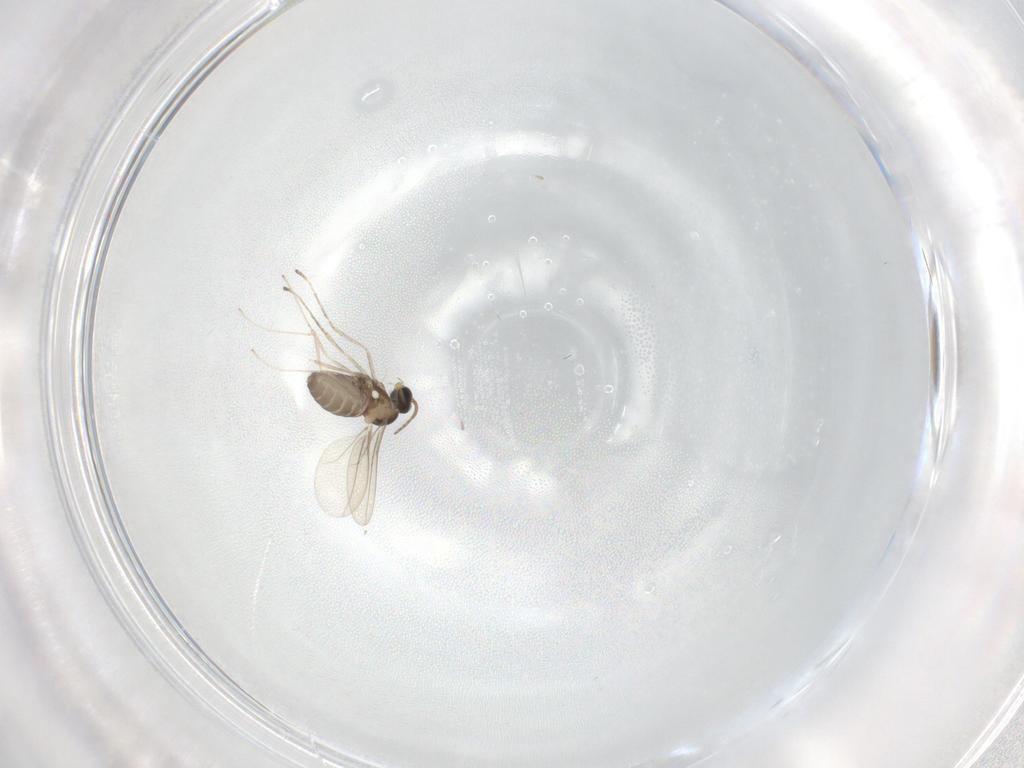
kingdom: Animalia
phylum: Arthropoda
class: Insecta
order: Diptera
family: Cecidomyiidae
